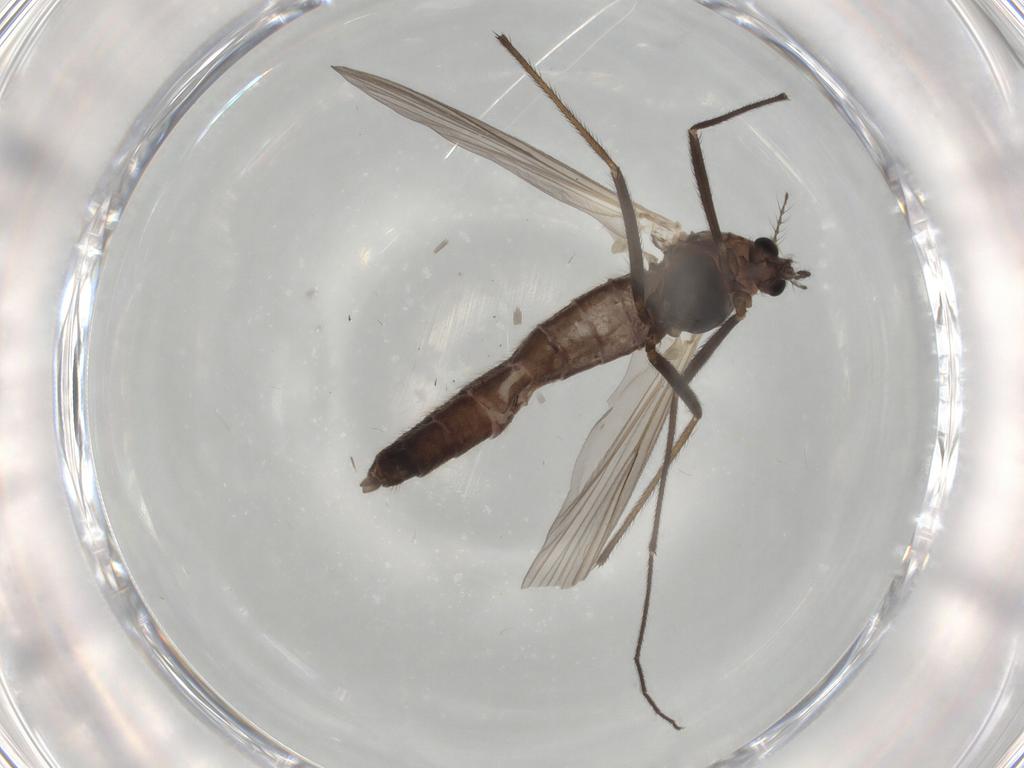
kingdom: Animalia
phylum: Arthropoda
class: Insecta
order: Diptera
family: Chironomidae
